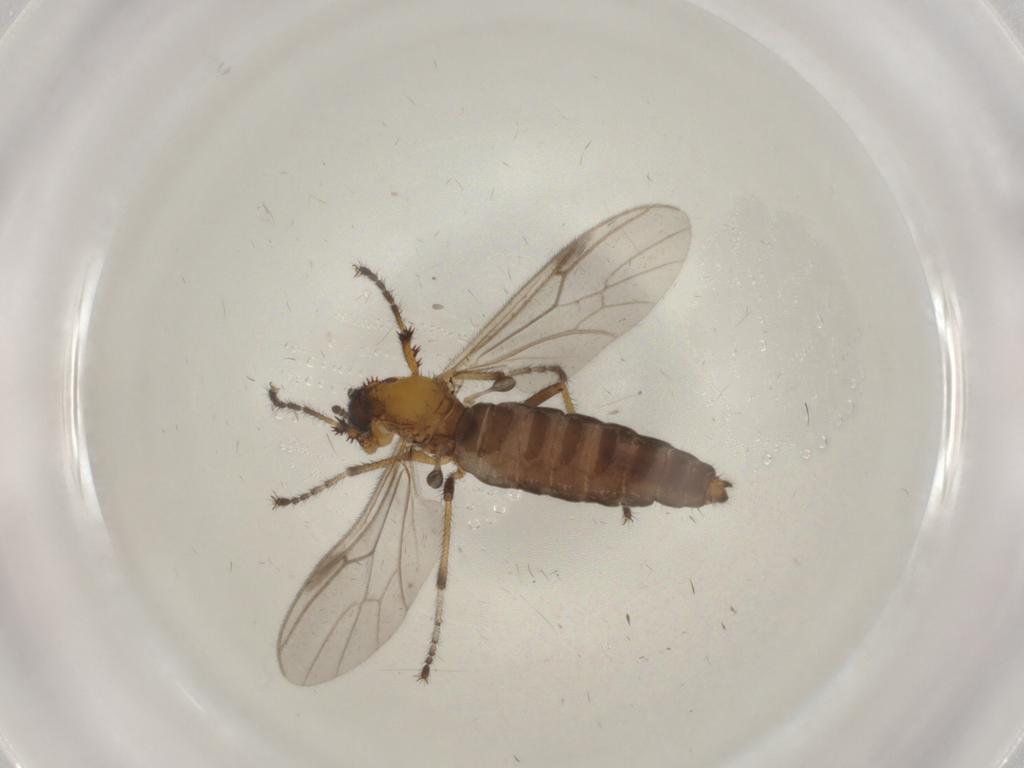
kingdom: Animalia
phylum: Arthropoda
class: Insecta
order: Diptera
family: Bibionidae
